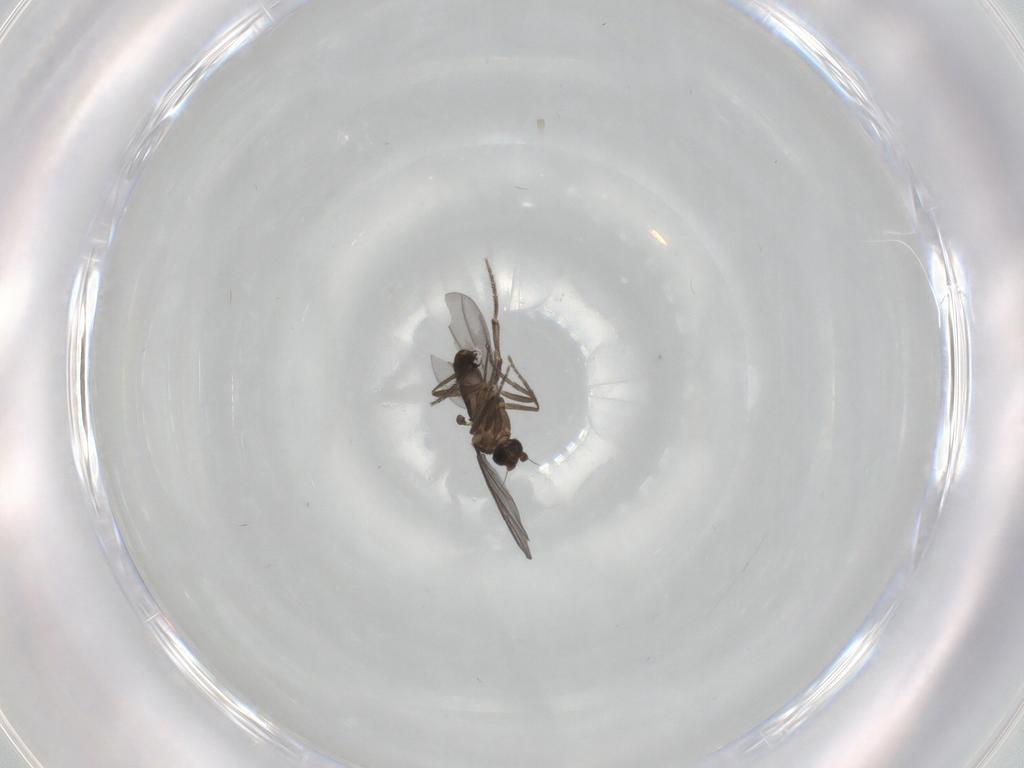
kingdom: Animalia
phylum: Arthropoda
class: Insecta
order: Diptera
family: Phoridae
